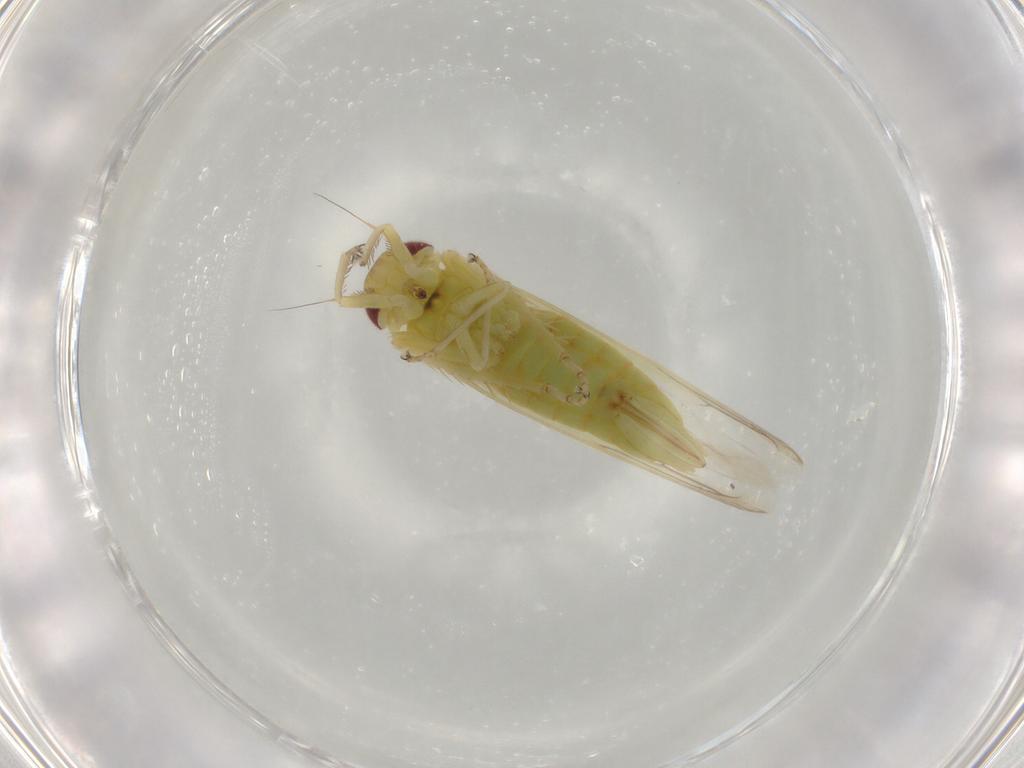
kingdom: Animalia
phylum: Arthropoda
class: Insecta
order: Hemiptera
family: Cicadellidae
